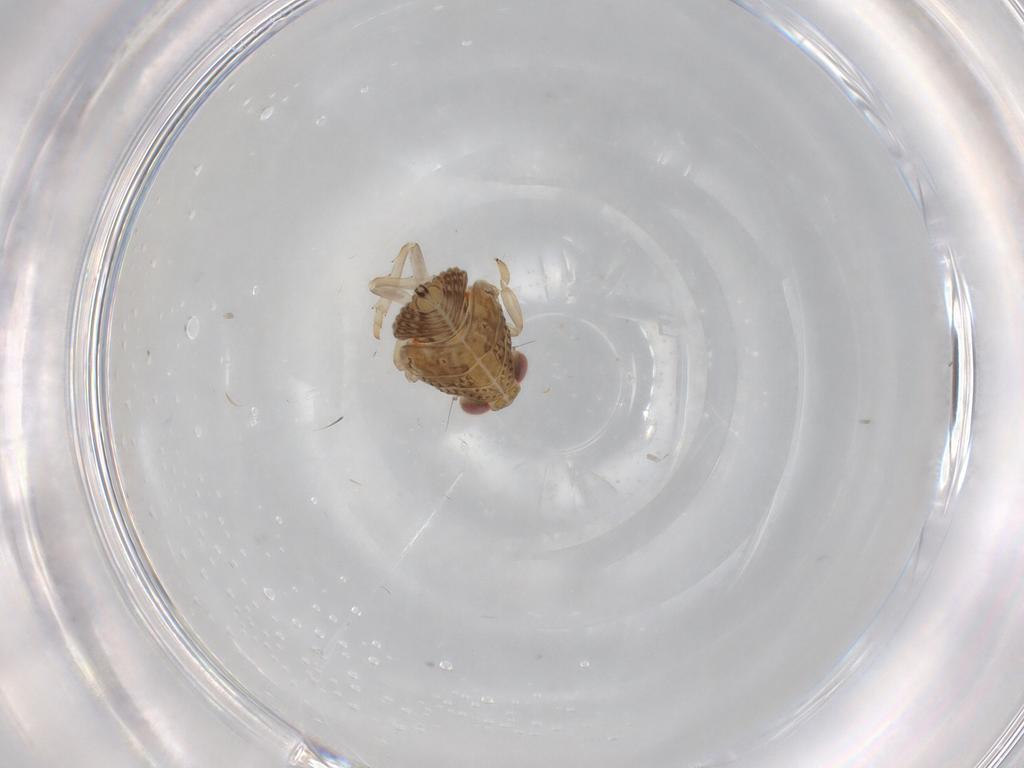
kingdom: Animalia
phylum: Arthropoda
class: Insecta
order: Hemiptera
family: Issidae
